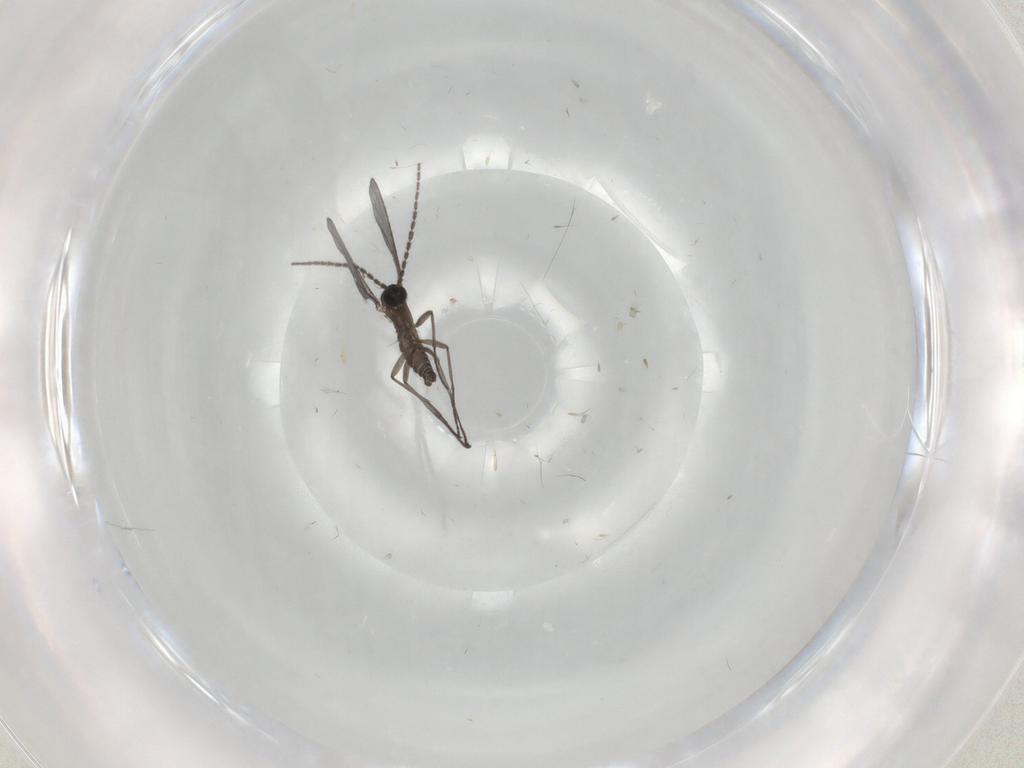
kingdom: Animalia
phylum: Arthropoda
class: Insecta
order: Diptera
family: Sciaridae
